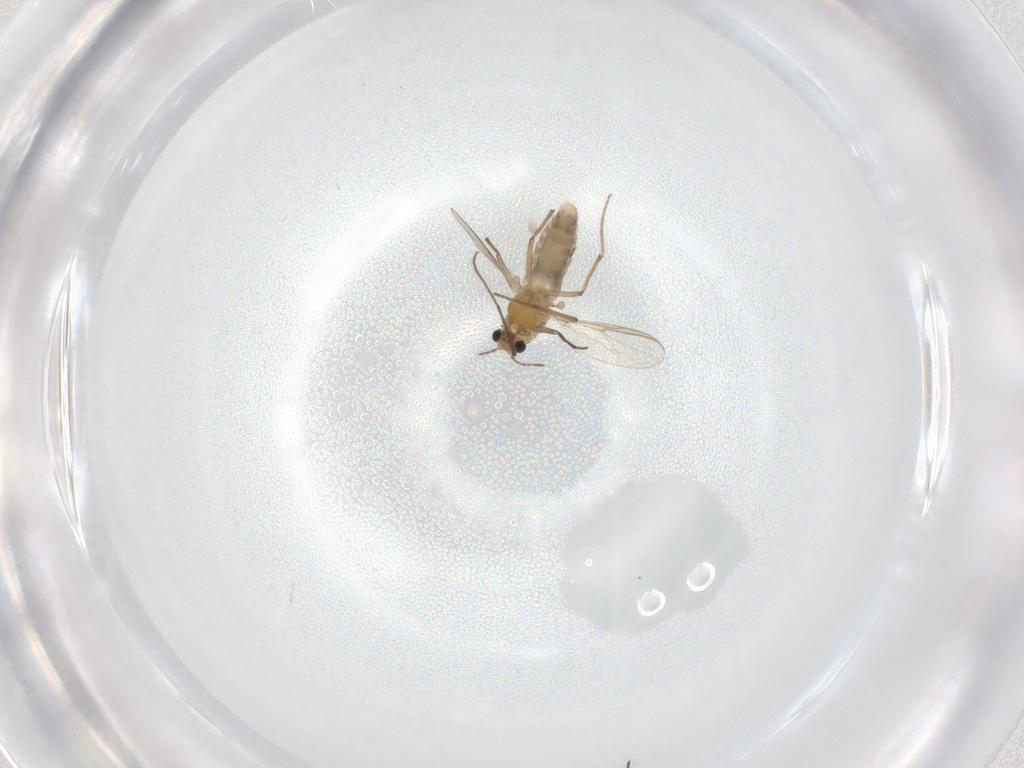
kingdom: Animalia
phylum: Arthropoda
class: Insecta
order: Diptera
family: Chironomidae
